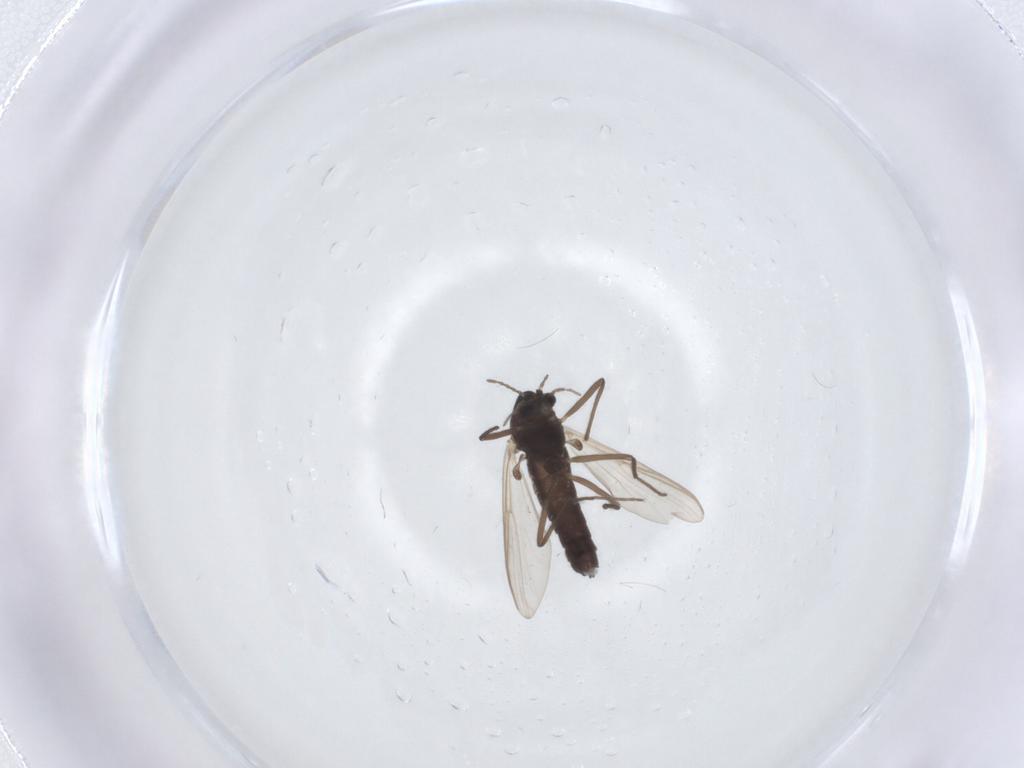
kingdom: Animalia
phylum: Arthropoda
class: Insecta
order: Diptera
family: Chironomidae
